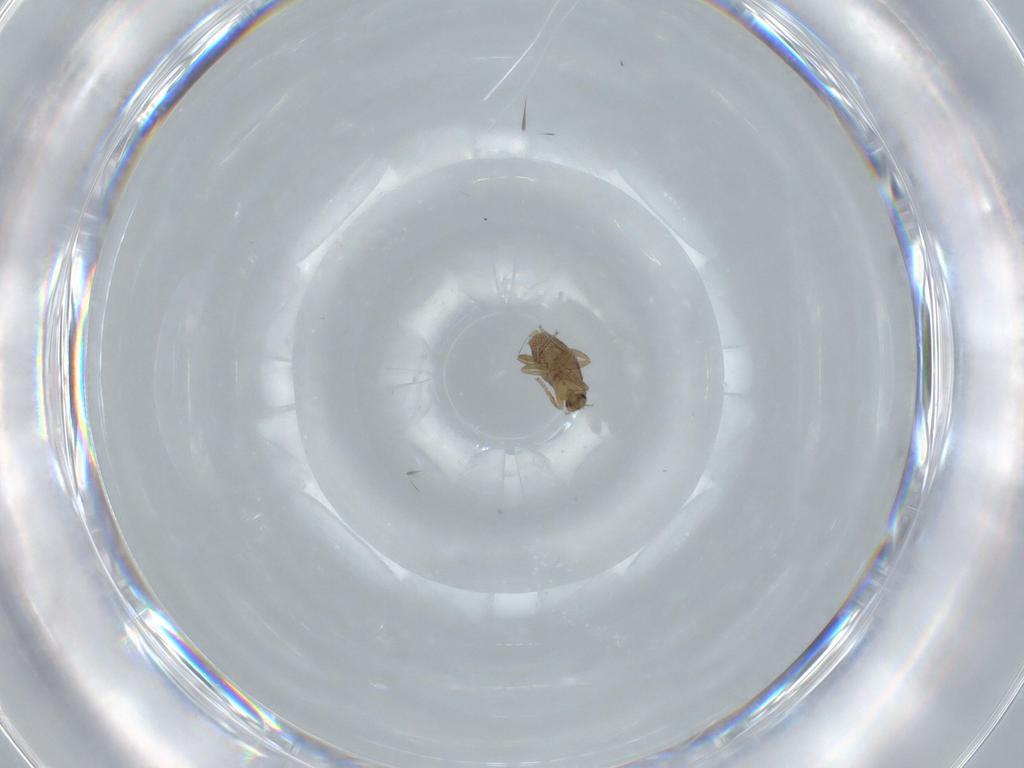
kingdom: Animalia
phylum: Arthropoda
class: Insecta
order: Diptera
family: Phoridae
